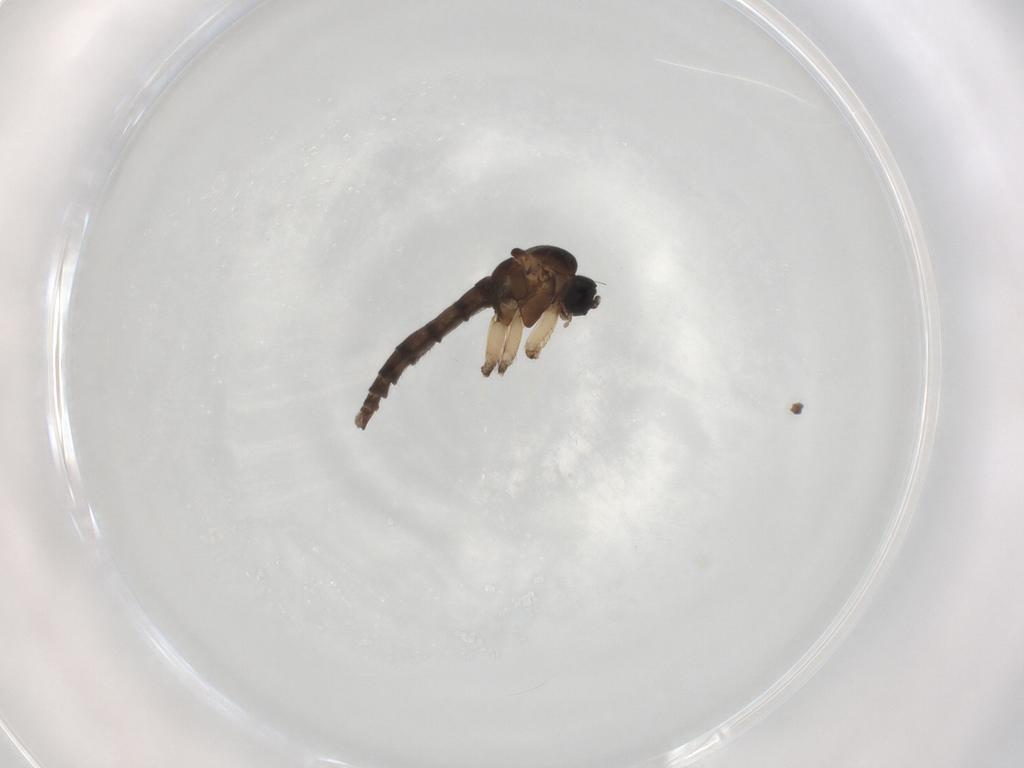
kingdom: Animalia
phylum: Arthropoda
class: Insecta
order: Diptera
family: Sciaridae
